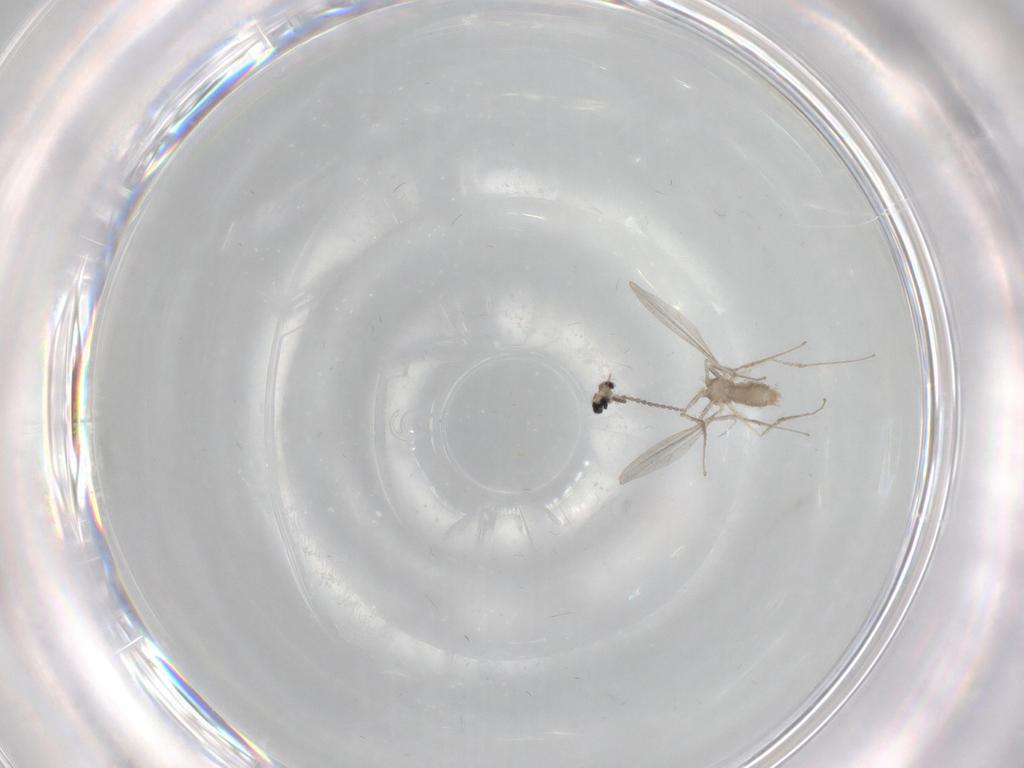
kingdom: Animalia
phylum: Arthropoda
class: Insecta
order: Diptera
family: Cecidomyiidae
